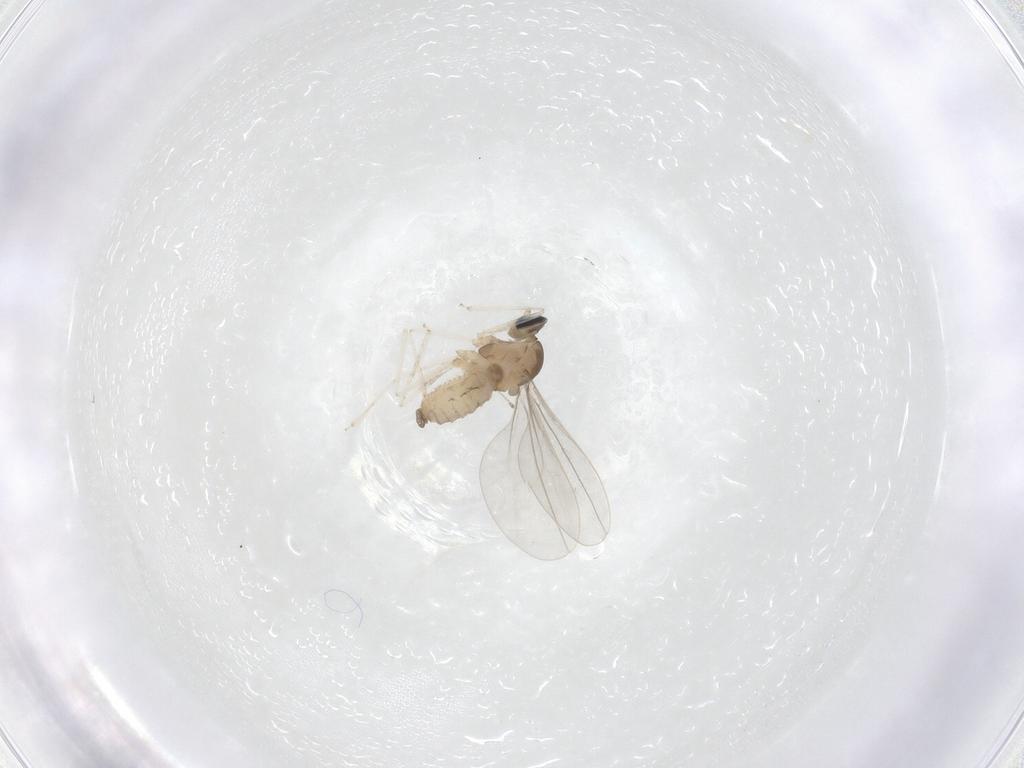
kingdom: Animalia
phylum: Arthropoda
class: Insecta
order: Diptera
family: Cecidomyiidae
